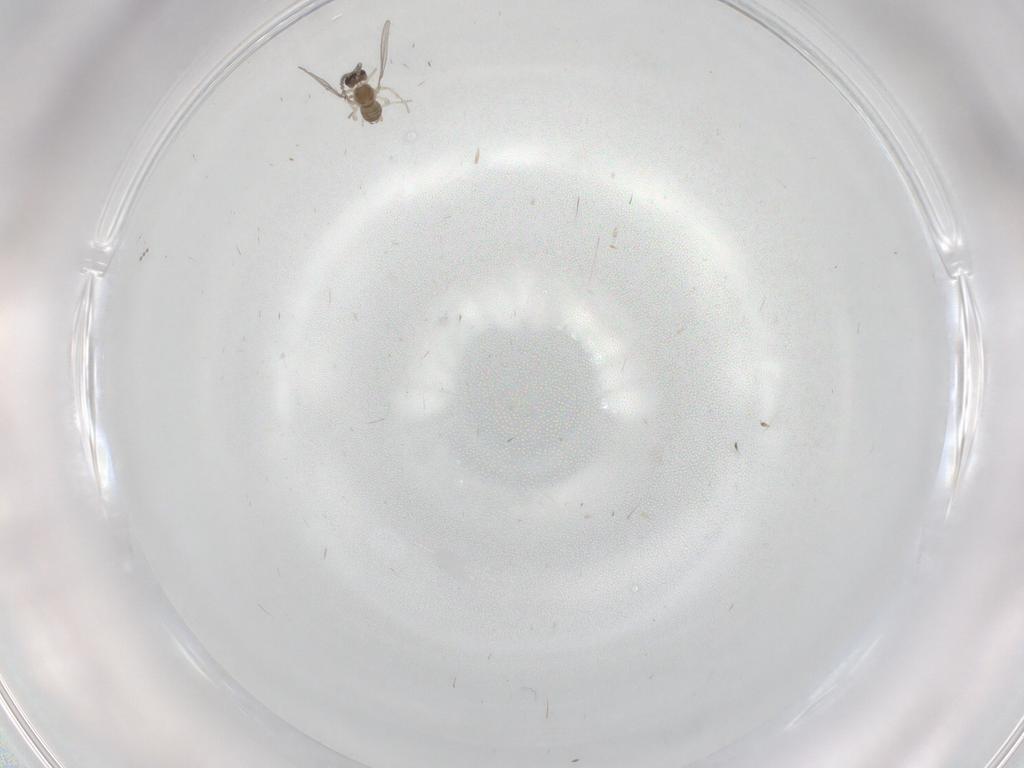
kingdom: Animalia
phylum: Arthropoda
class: Insecta
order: Diptera
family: Cecidomyiidae
